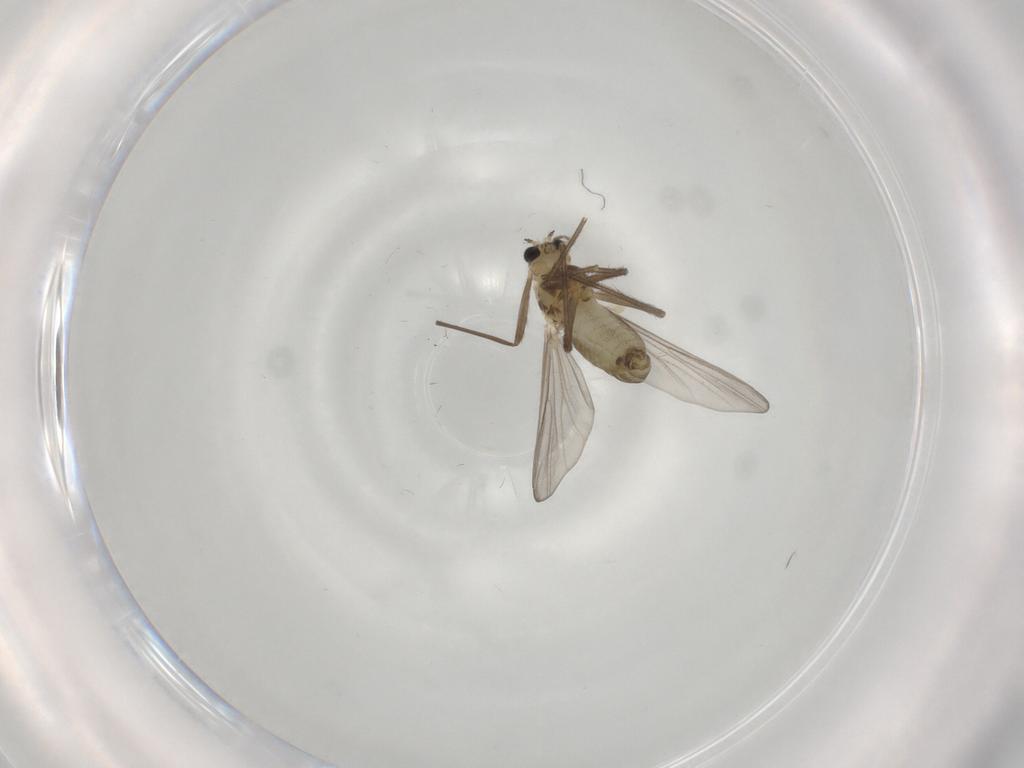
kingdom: Animalia
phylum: Arthropoda
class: Insecta
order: Diptera
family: Chironomidae
